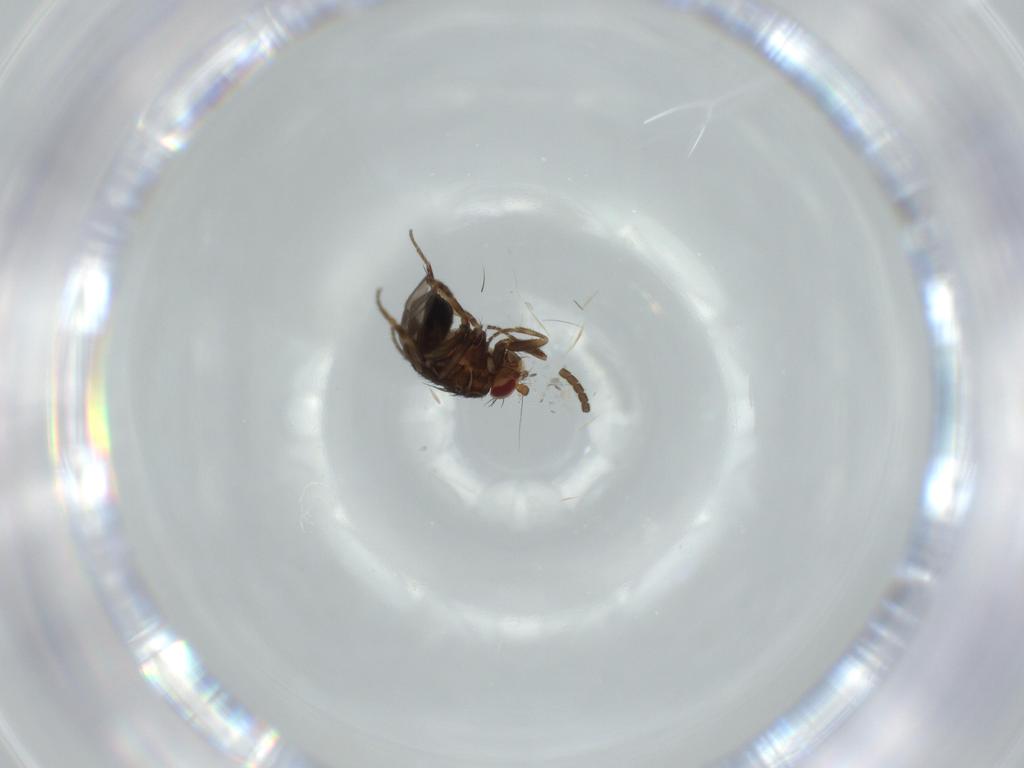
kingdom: Animalia
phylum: Arthropoda
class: Insecta
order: Diptera
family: Sphaeroceridae
